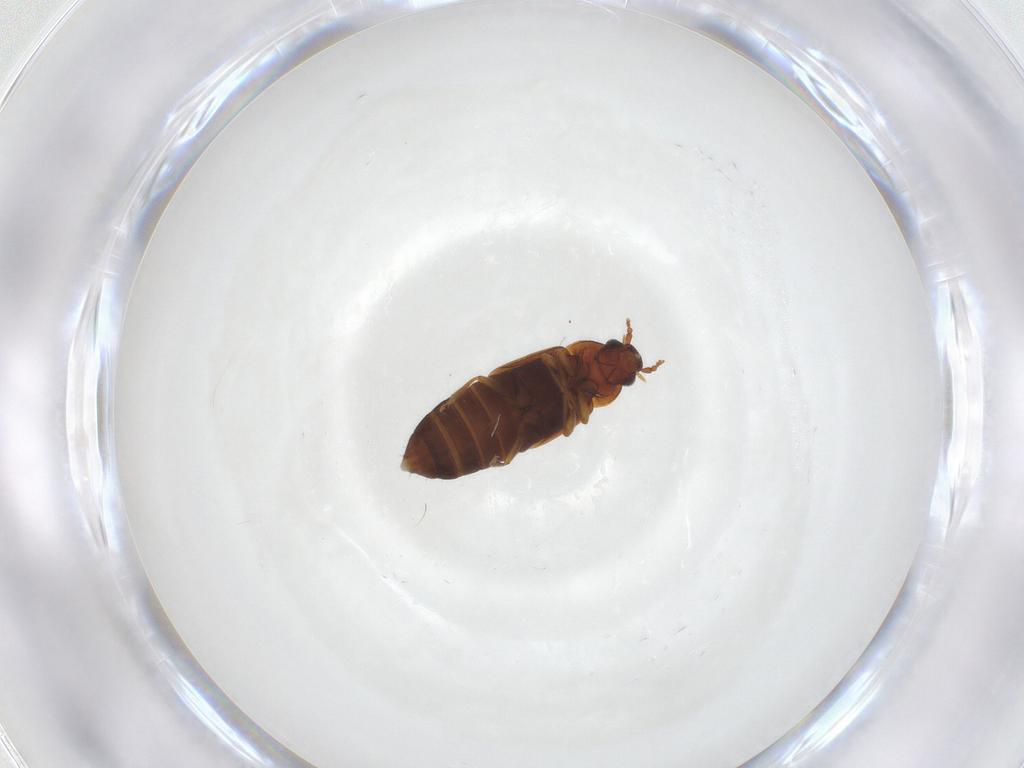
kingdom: Animalia
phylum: Arthropoda
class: Insecta
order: Coleoptera
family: Staphylinidae
